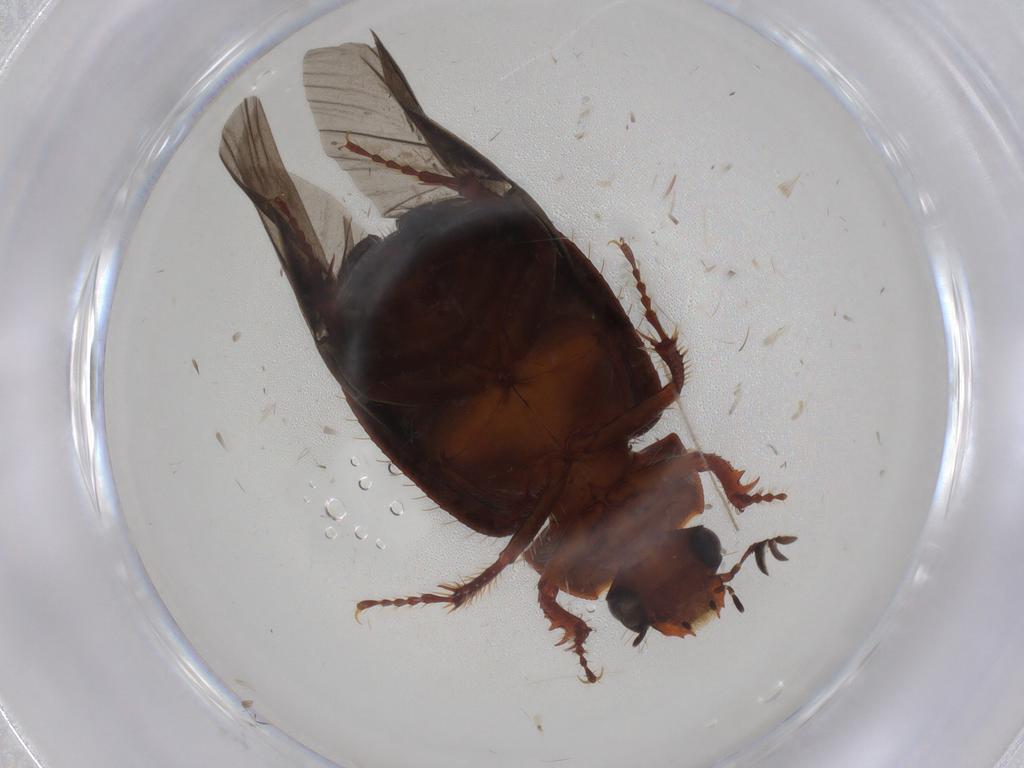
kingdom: Animalia
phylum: Arthropoda
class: Insecta
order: Coleoptera
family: Hybosoridae
